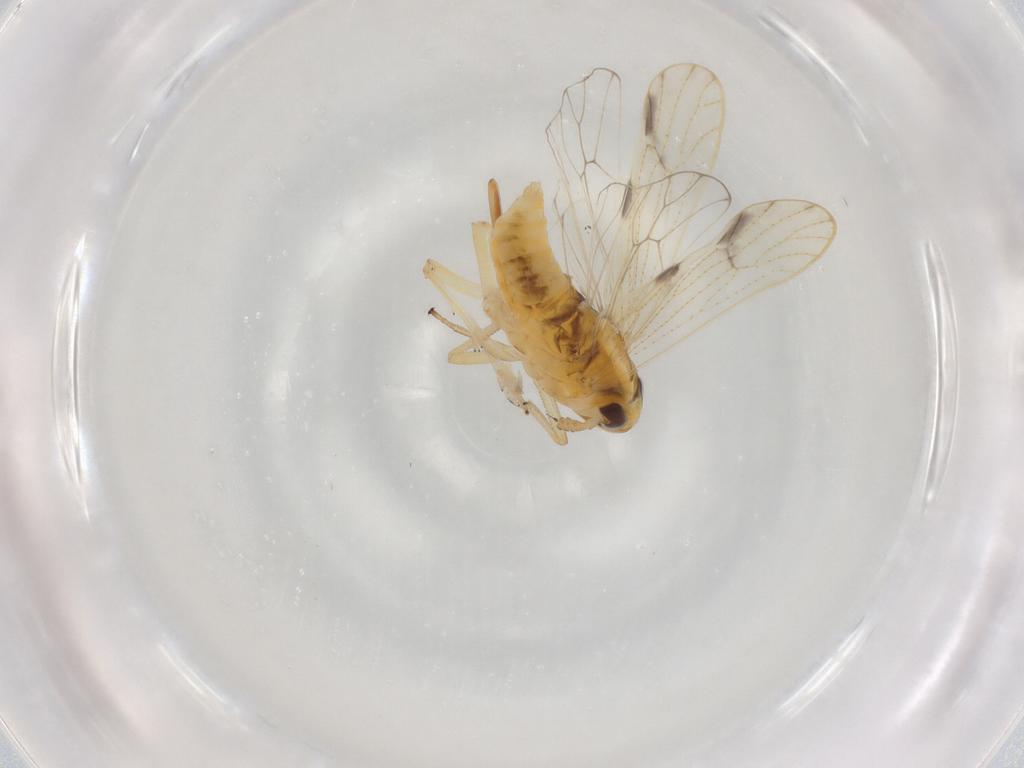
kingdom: Animalia
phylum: Arthropoda
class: Insecta
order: Hemiptera
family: Delphacidae
